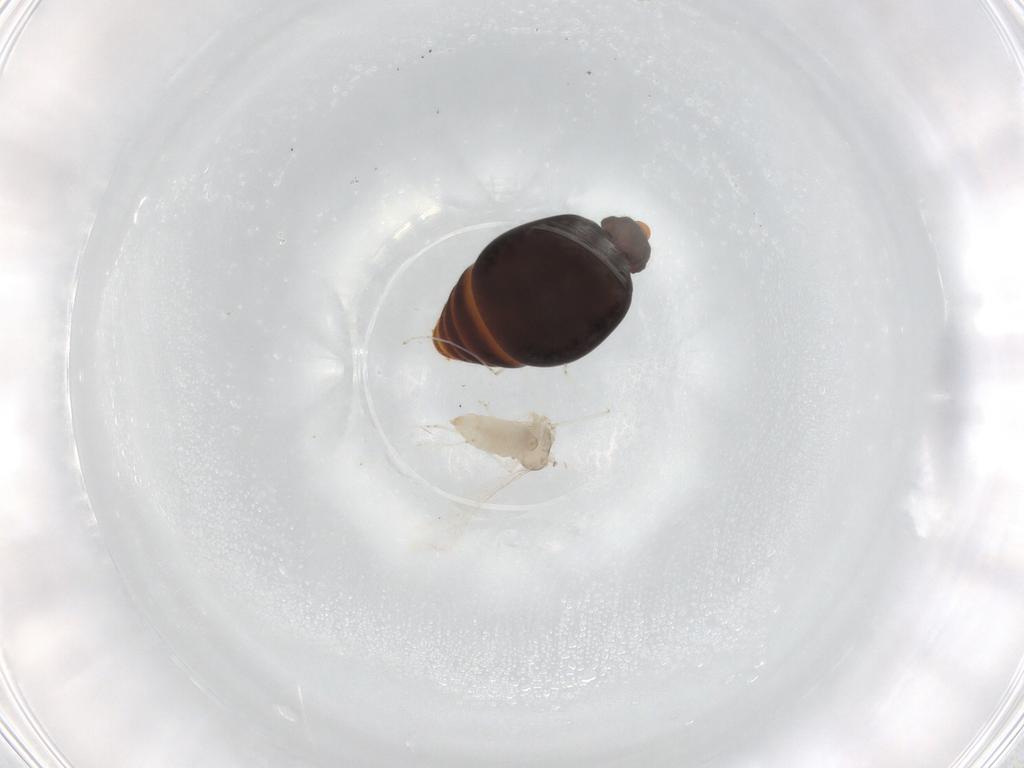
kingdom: Animalia
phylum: Arthropoda
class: Insecta
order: Diptera
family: Cecidomyiidae
